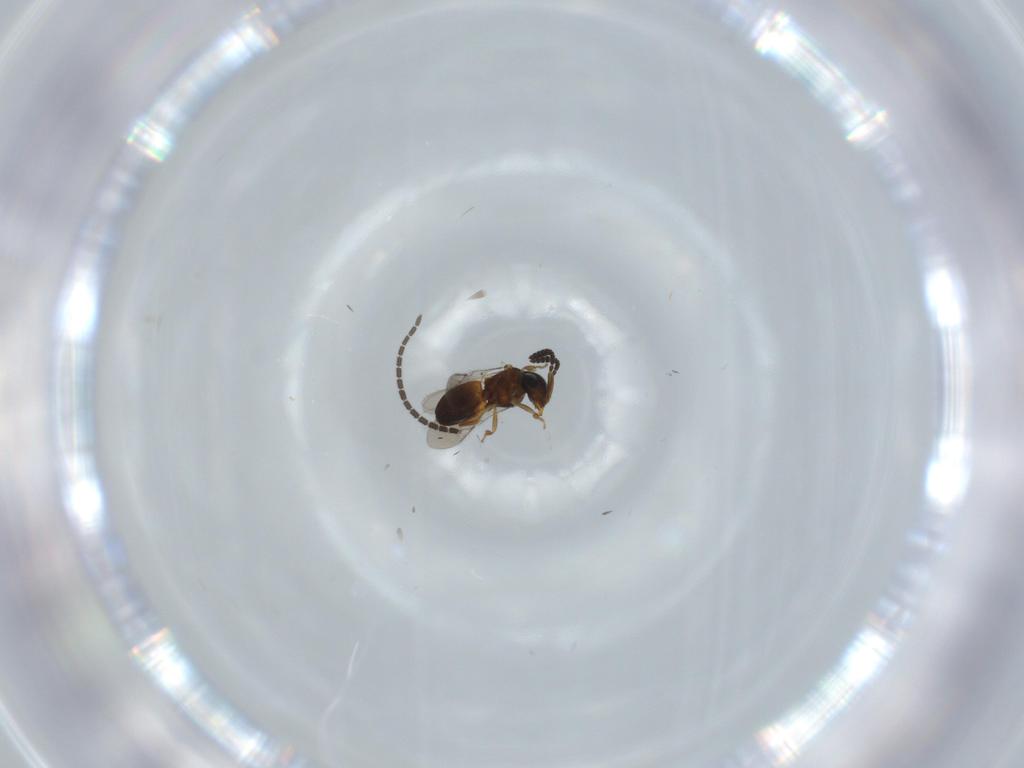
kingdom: Animalia
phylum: Arthropoda
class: Insecta
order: Hymenoptera
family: Scelionidae
